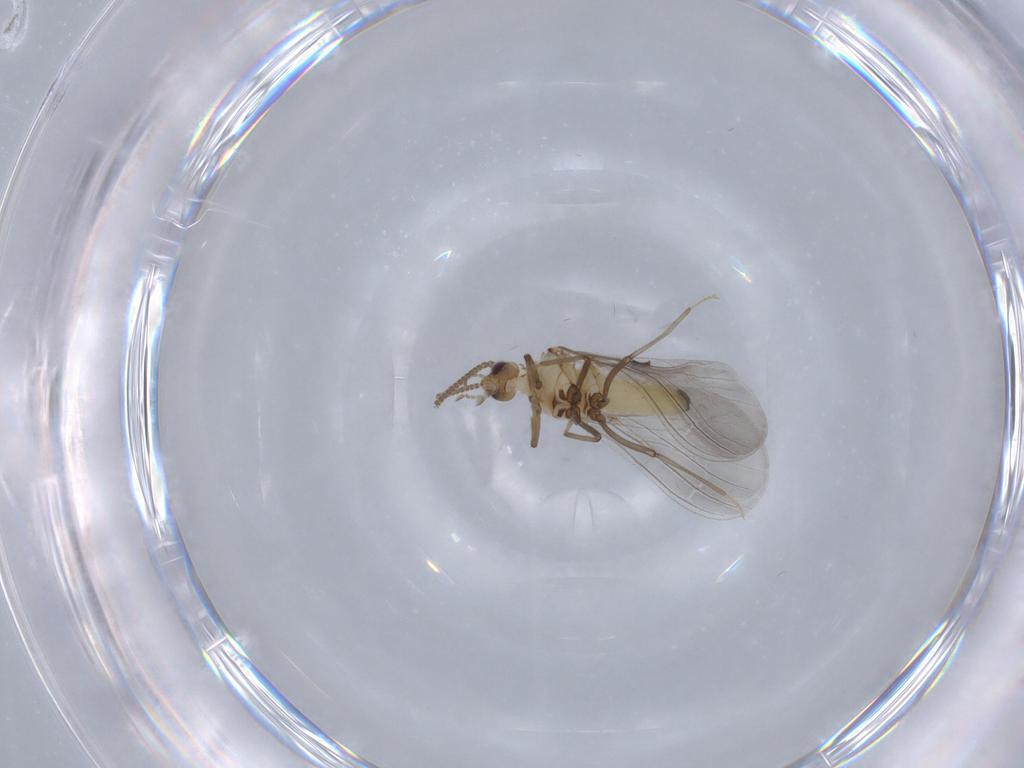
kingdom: Animalia
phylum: Arthropoda
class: Insecta
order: Neuroptera
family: Coniopterygidae
